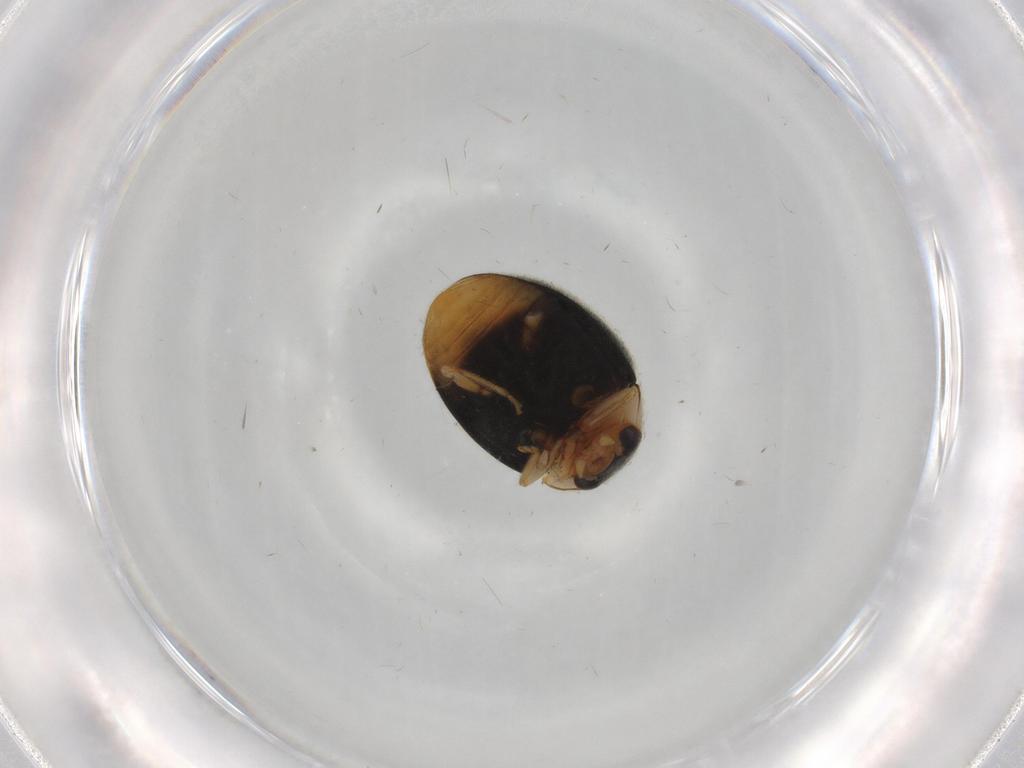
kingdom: Animalia
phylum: Arthropoda
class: Insecta
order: Coleoptera
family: Coccinellidae
